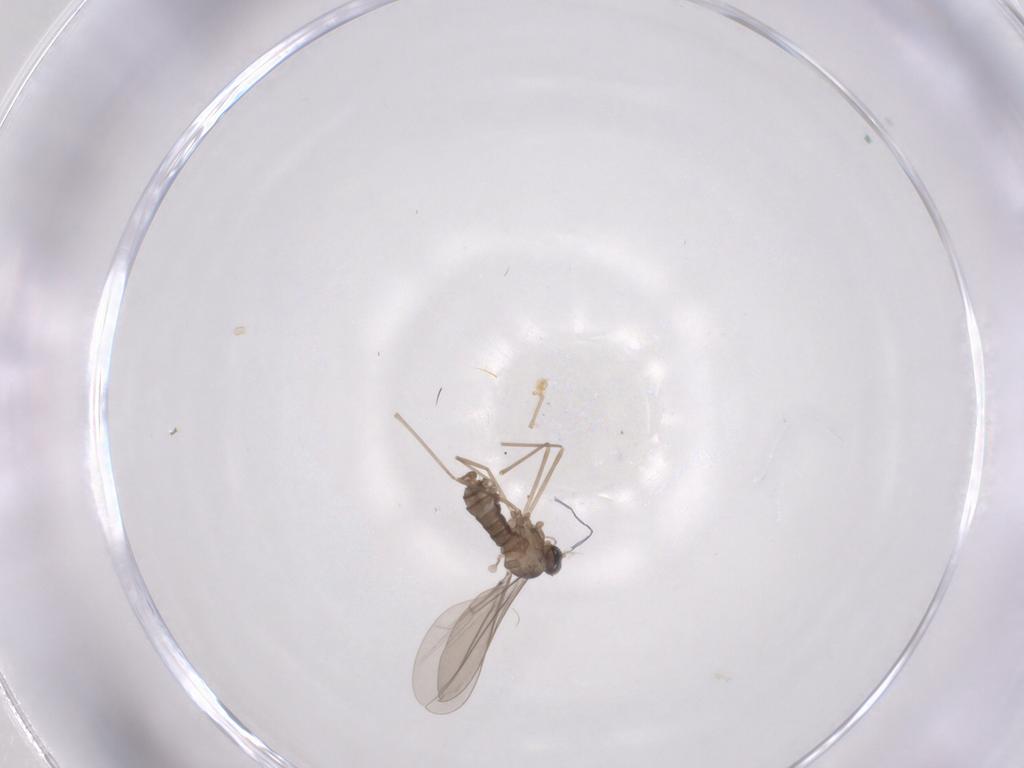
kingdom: Animalia
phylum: Arthropoda
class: Insecta
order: Diptera
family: Cecidomyiidae
